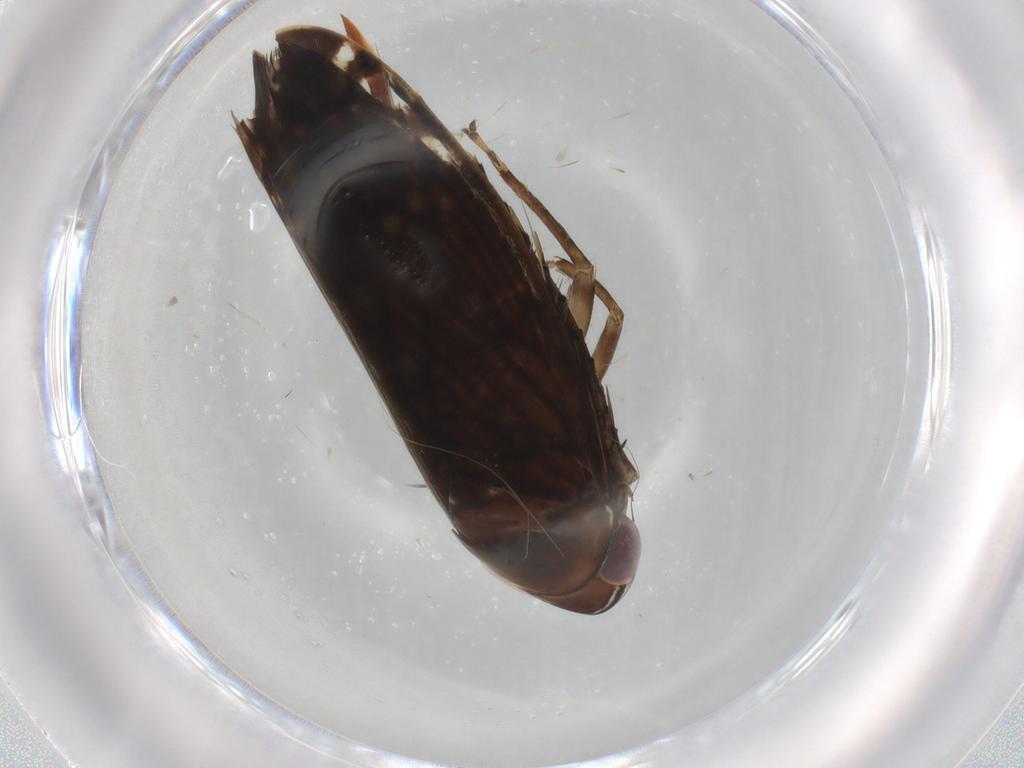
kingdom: Animalia
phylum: Arthropoda
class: Insecta
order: Hemiptera
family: Cicadellidae
